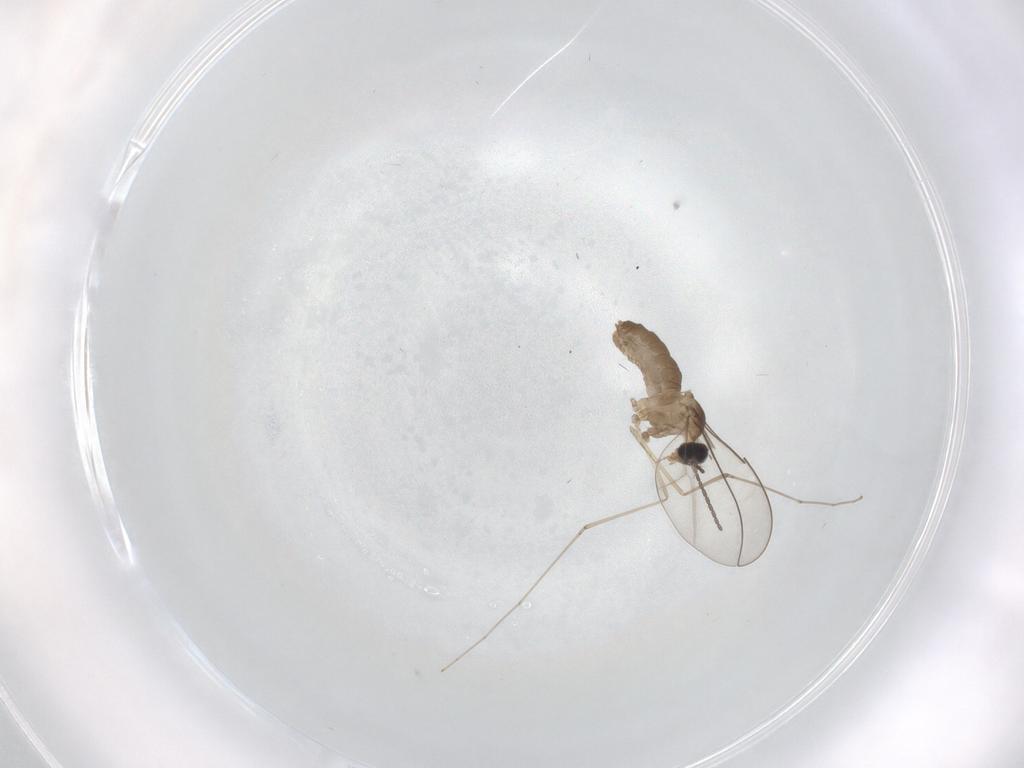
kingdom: Animalia
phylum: Arthropoda
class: Insecta
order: Diptera
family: Cecidomyiidae
